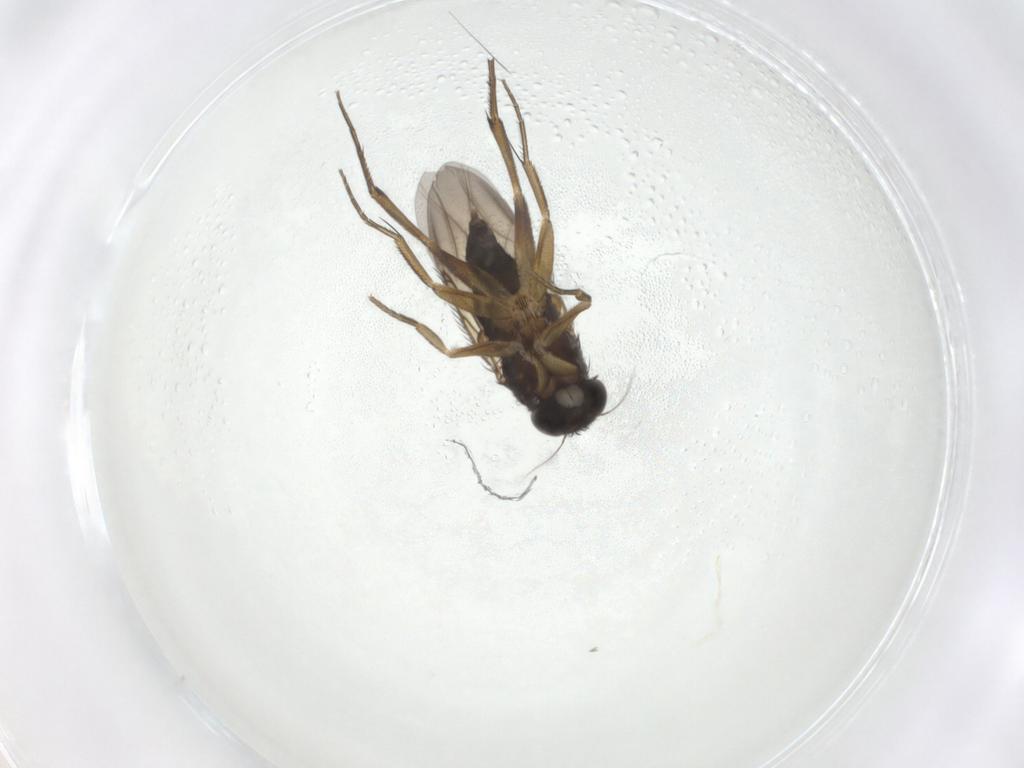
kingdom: Animalia
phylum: Arthropoda
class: Insecta
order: Diptera
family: Phoridae
